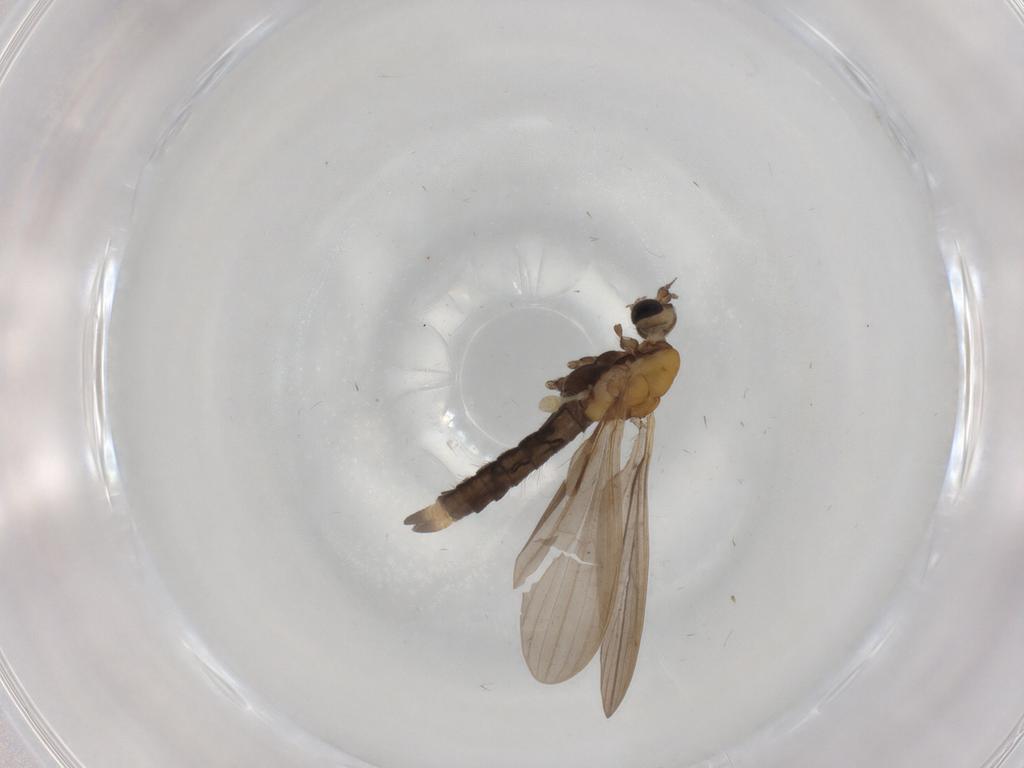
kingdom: Animalia
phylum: Arthropoda
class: Insecta
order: Diptera
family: Limoniidae
